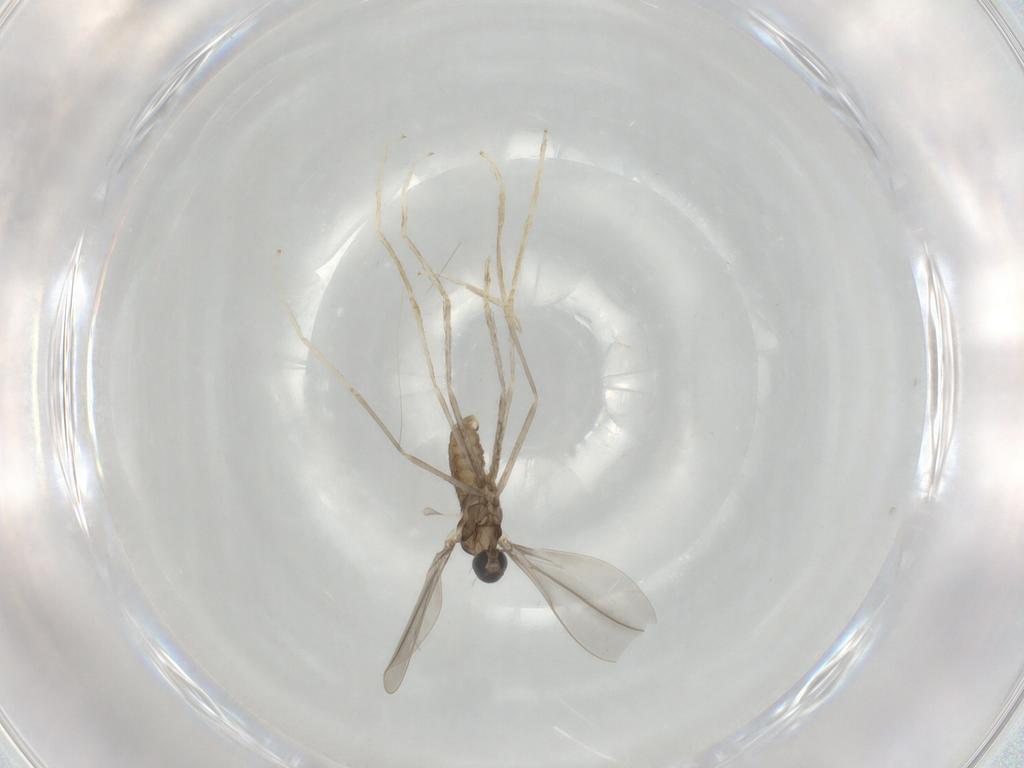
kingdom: Animalia
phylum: Arthropoda
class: Insecta
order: Diptera
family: Cecidomyiidae
